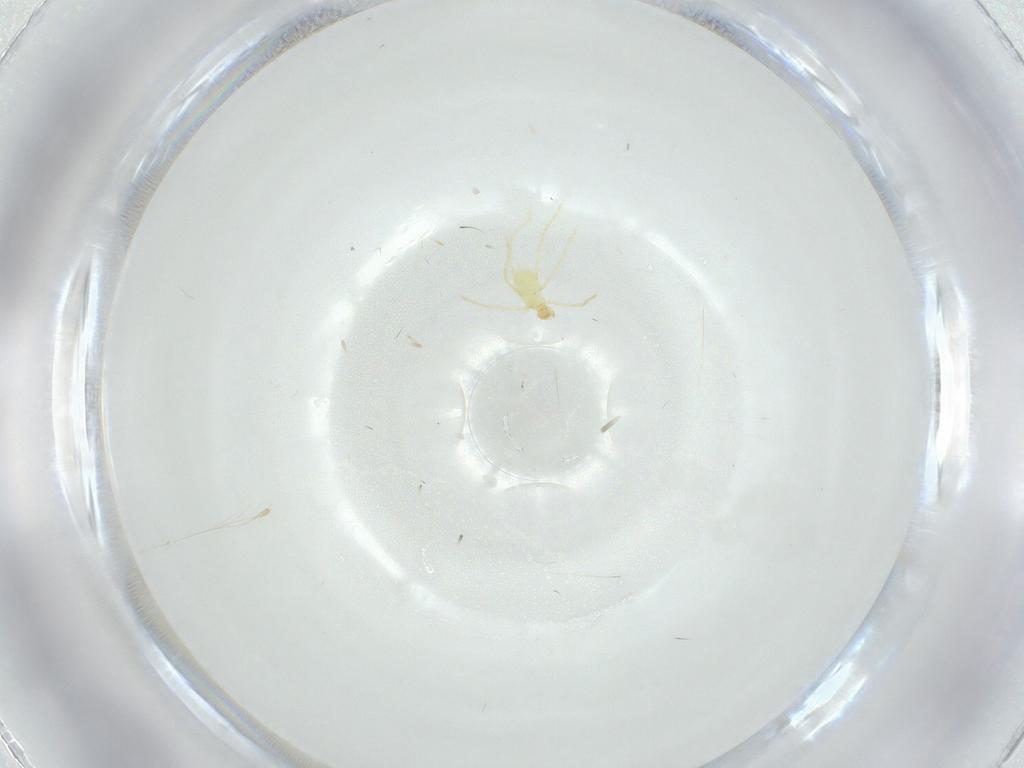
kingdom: Animalia
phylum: Arthropoda
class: Arachnida
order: Trombidiformes
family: Erythraeidae
